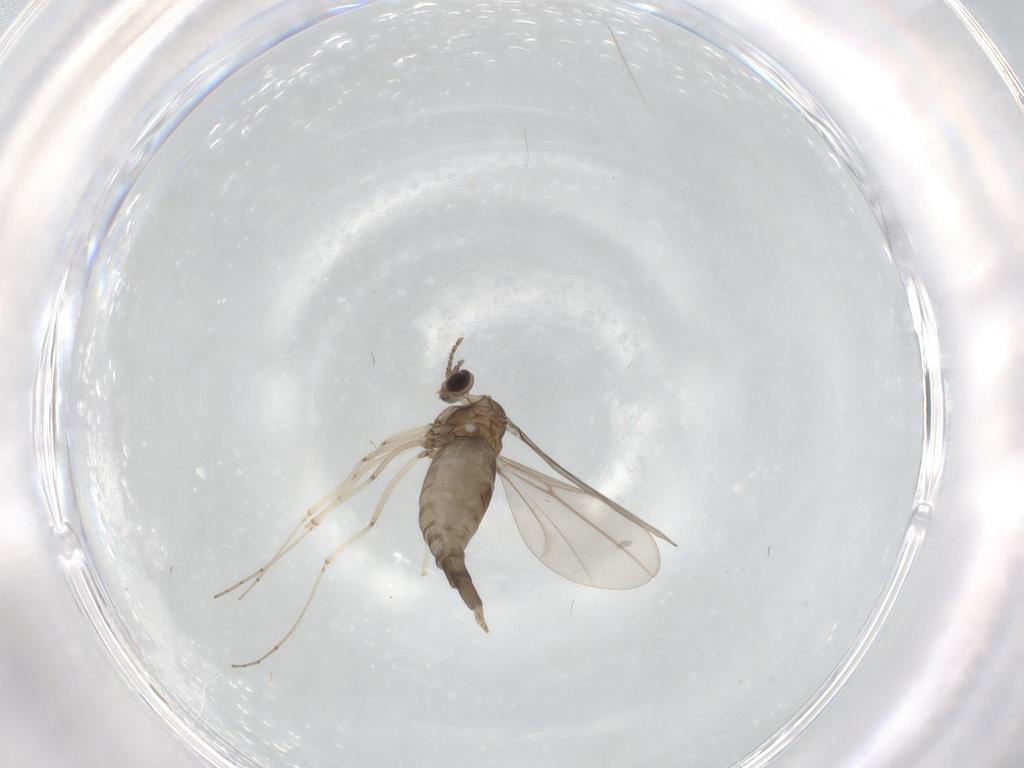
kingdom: Animalia
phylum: Arthropoda
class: Insecta
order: Diptera
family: Cecidomyiidae
